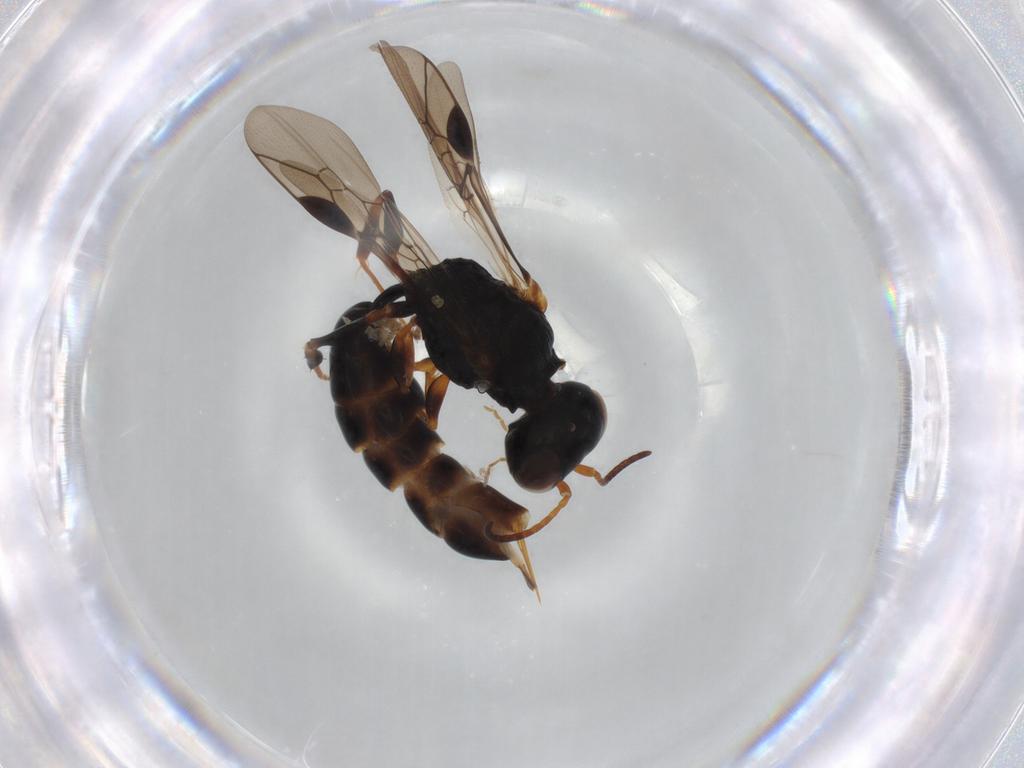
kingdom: Animalia
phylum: Arthropoda
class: Insecta
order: Hymenoptera
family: Pemphredonidae
